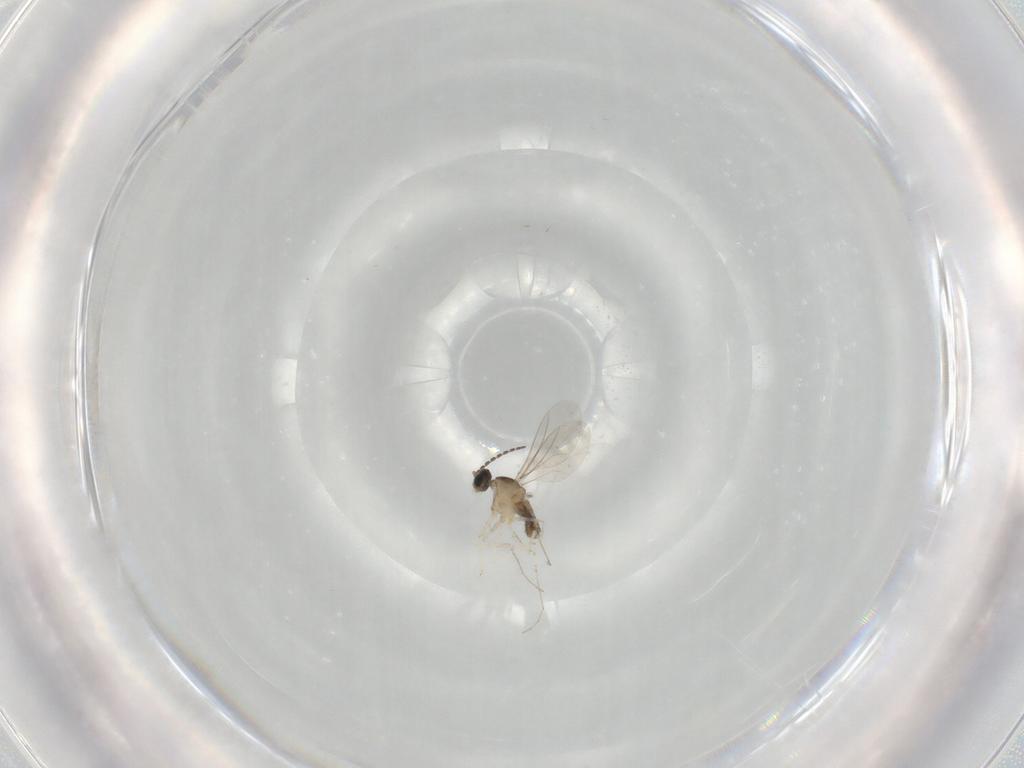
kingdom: Animalia
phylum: Arthropoda
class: Insecta
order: Diptera
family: Cecidomyiidae
